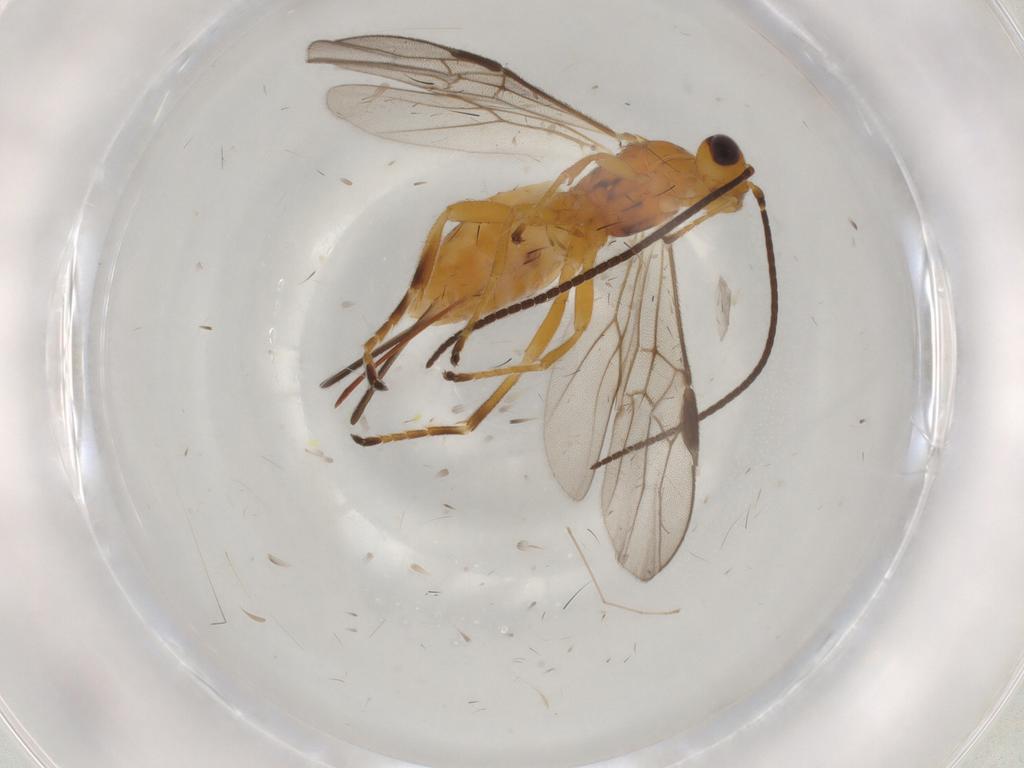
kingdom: Animalia
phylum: Arthropoda
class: Insecta
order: Hymenoptera
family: Braconidae
